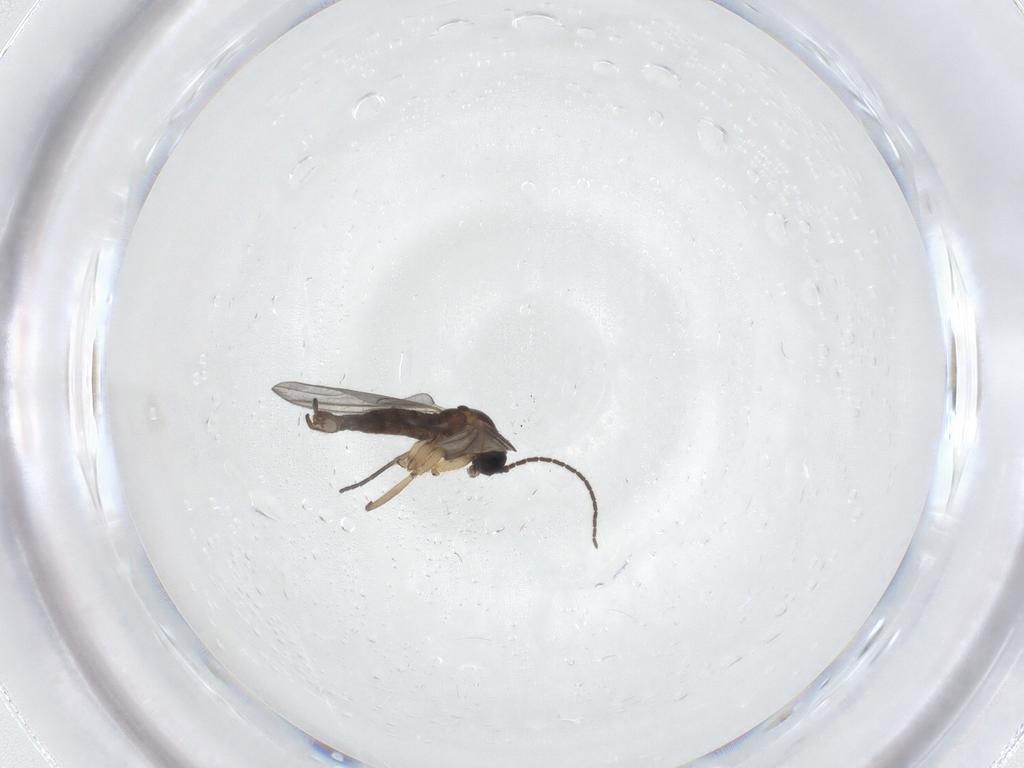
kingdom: Animalia
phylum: Arthropoda
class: Insecta
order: Diptera
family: Sciaridae
